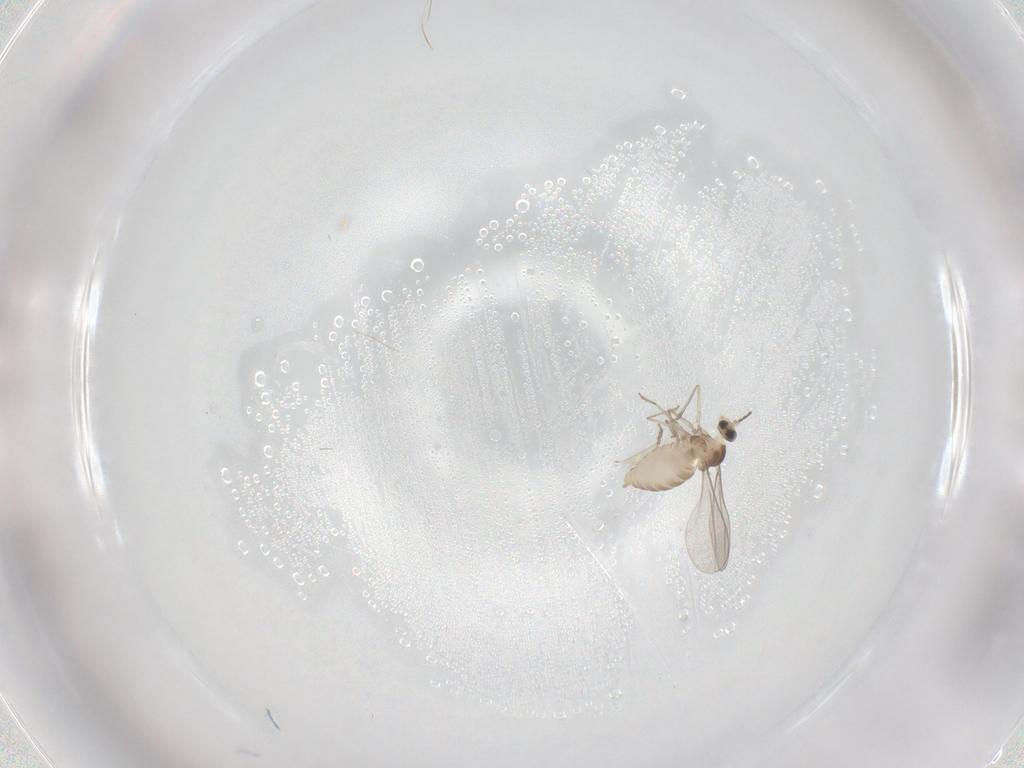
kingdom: Animalia
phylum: Arthropoda
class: Insecta
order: Diptera
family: Cecidomyiidae
